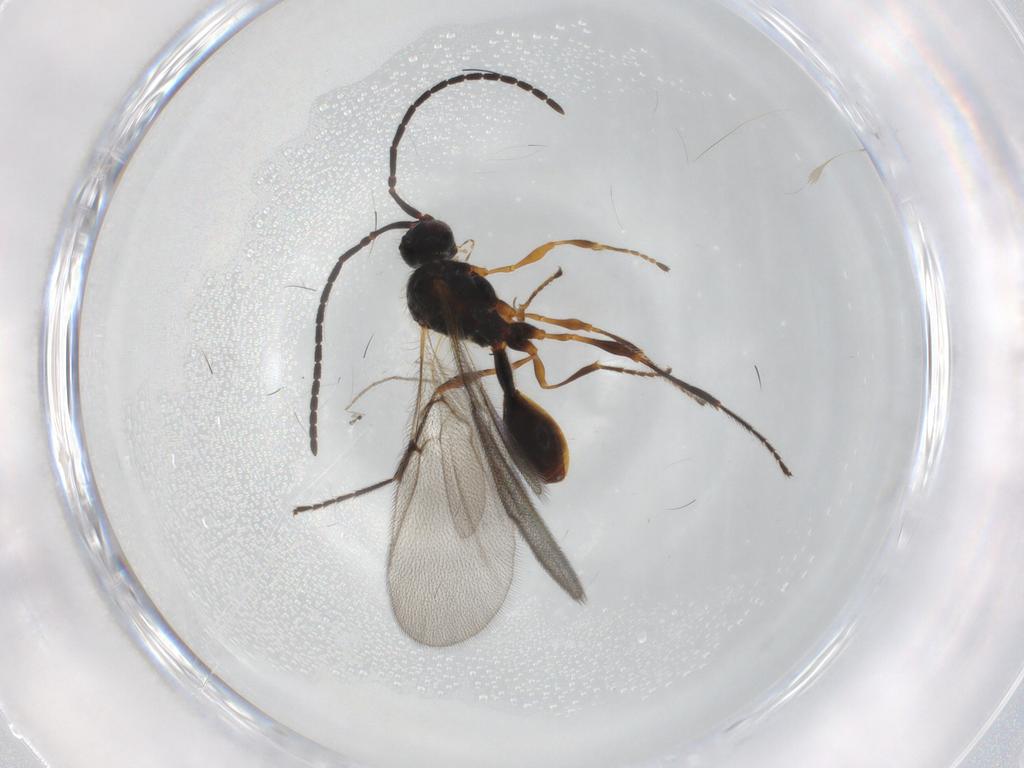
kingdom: Animalia
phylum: Arthropoda
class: Insecta
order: Hymenoptera
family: Diapriidae
